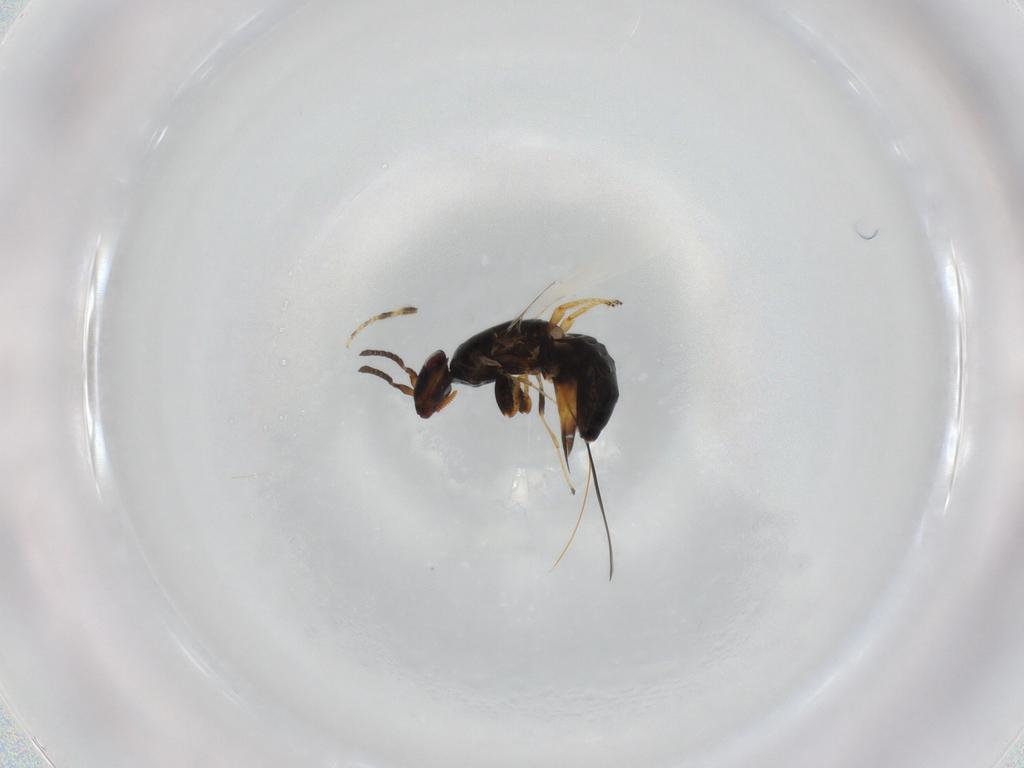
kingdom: Animalia
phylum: Arthropoda
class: Insecta
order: Hymenoptera
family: Agaonidae
